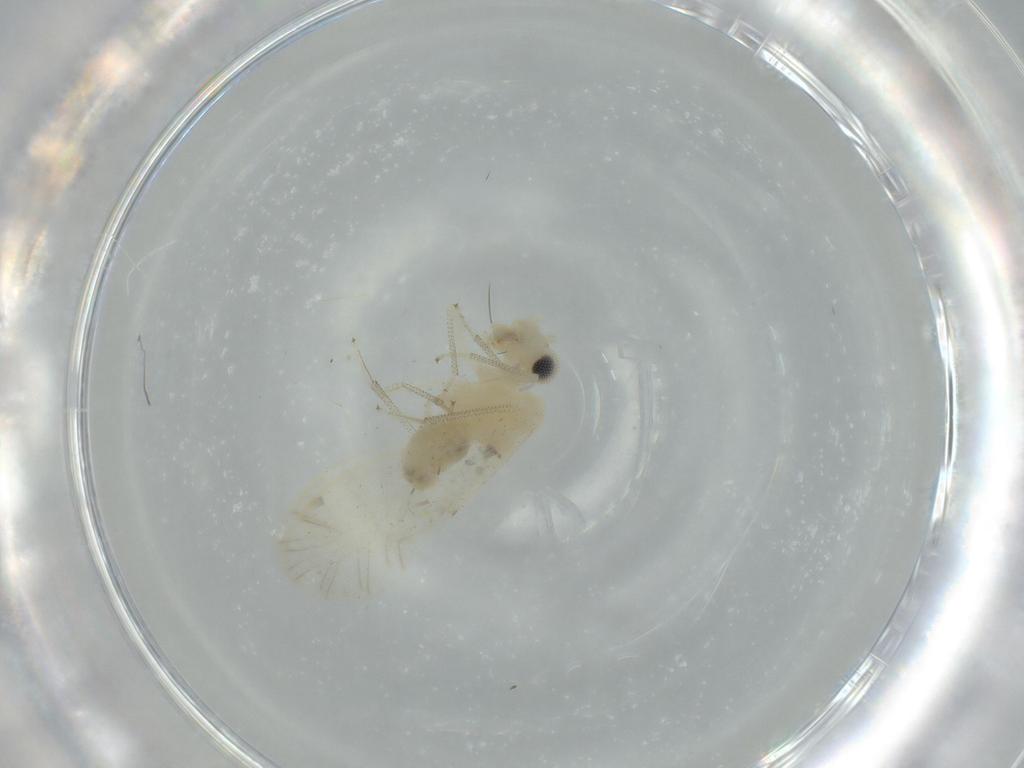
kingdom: Animalia
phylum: Arthropoda
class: Insecta
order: Psocodea
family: Caeciliusidae
